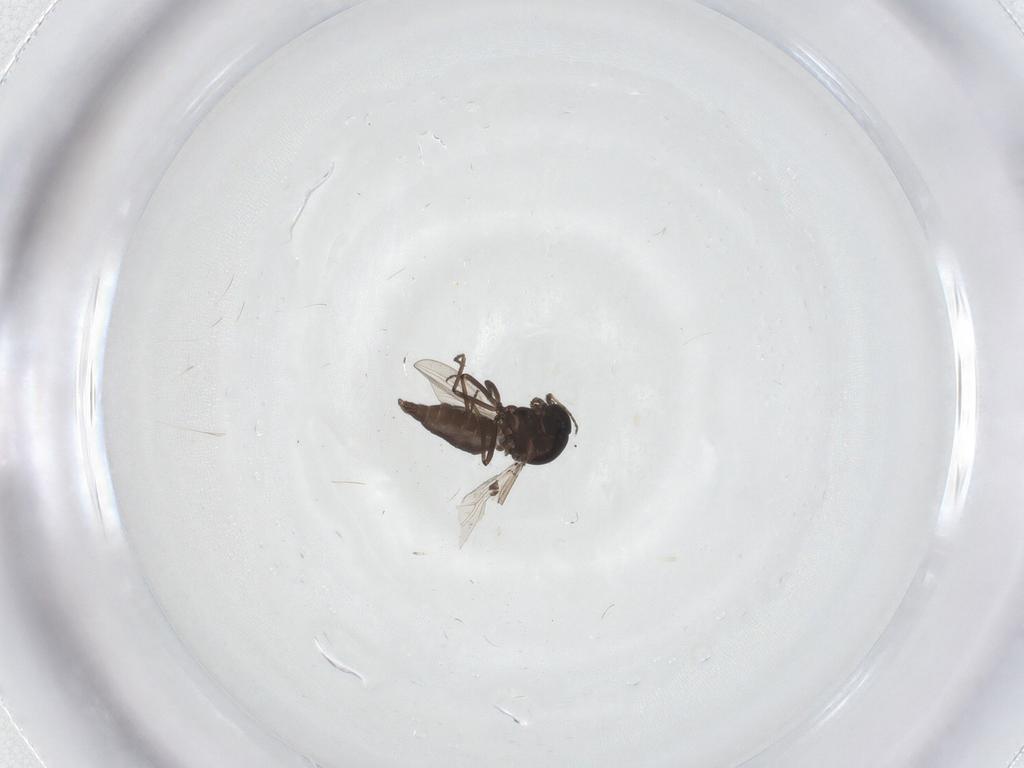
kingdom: Animalia
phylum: Arthropoda
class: Insecta
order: Diptera
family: Ceratopogonidae
